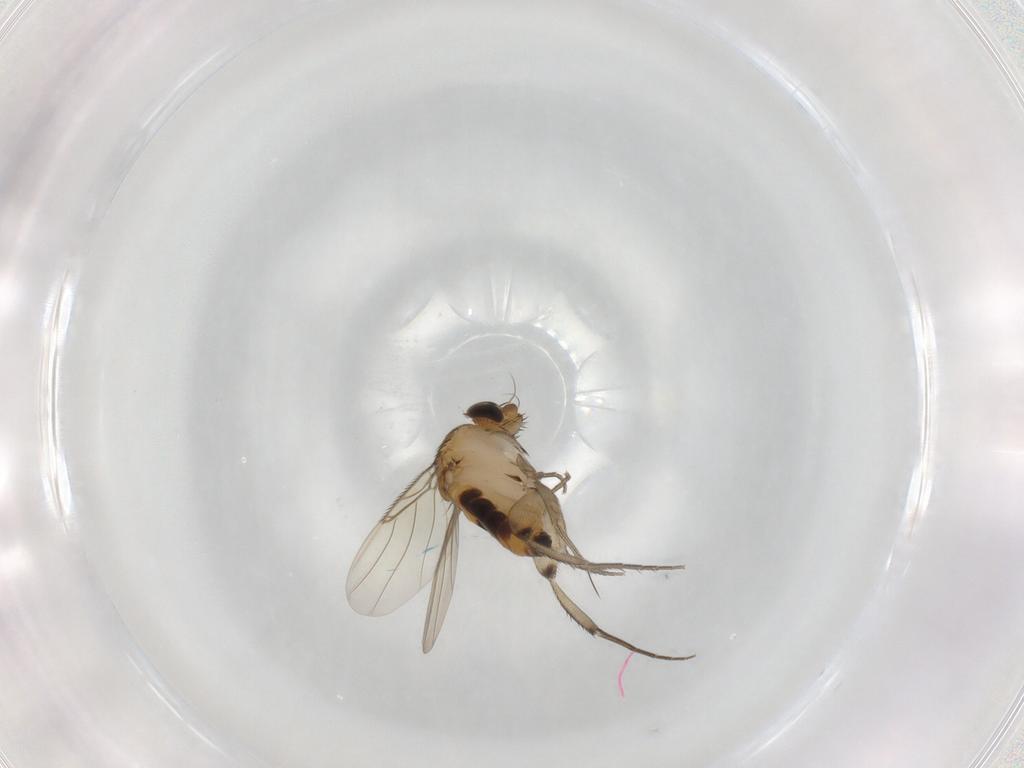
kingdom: Animalia
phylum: Arthropoda
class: Insecta
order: Diptera
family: Phoridae
